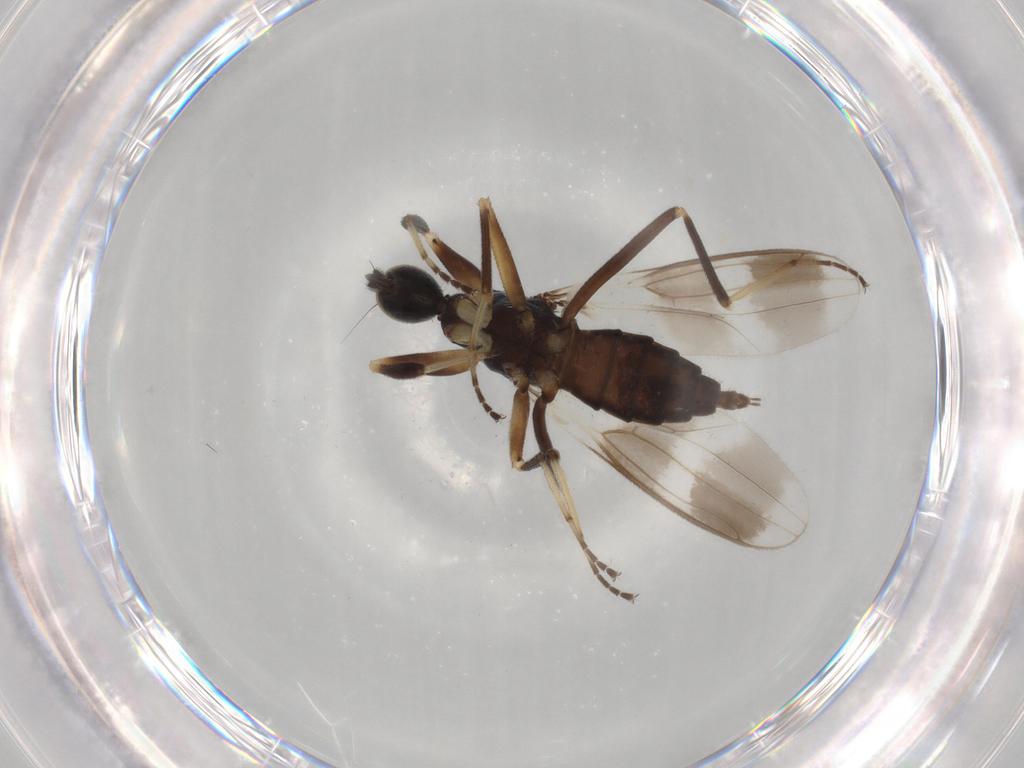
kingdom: Animalia
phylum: Arthropoda
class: Insecta
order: Diptera
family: Hybotidae
